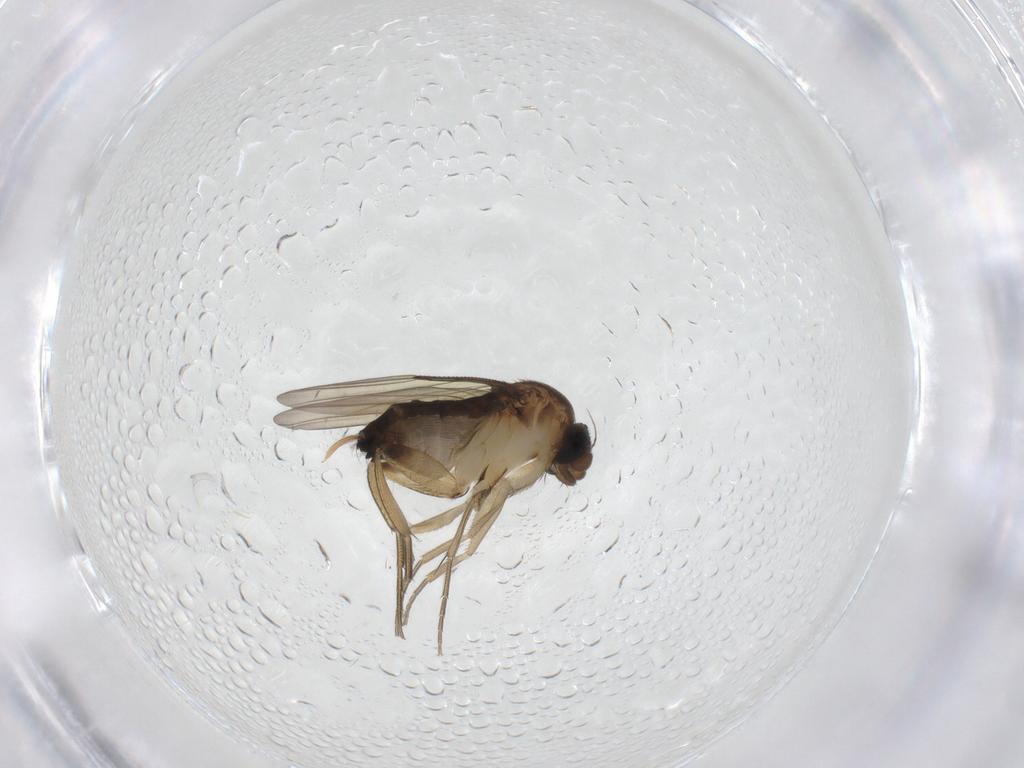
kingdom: Animalia
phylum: Arthropoda
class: Insecta
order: Diptera
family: Phoridae
